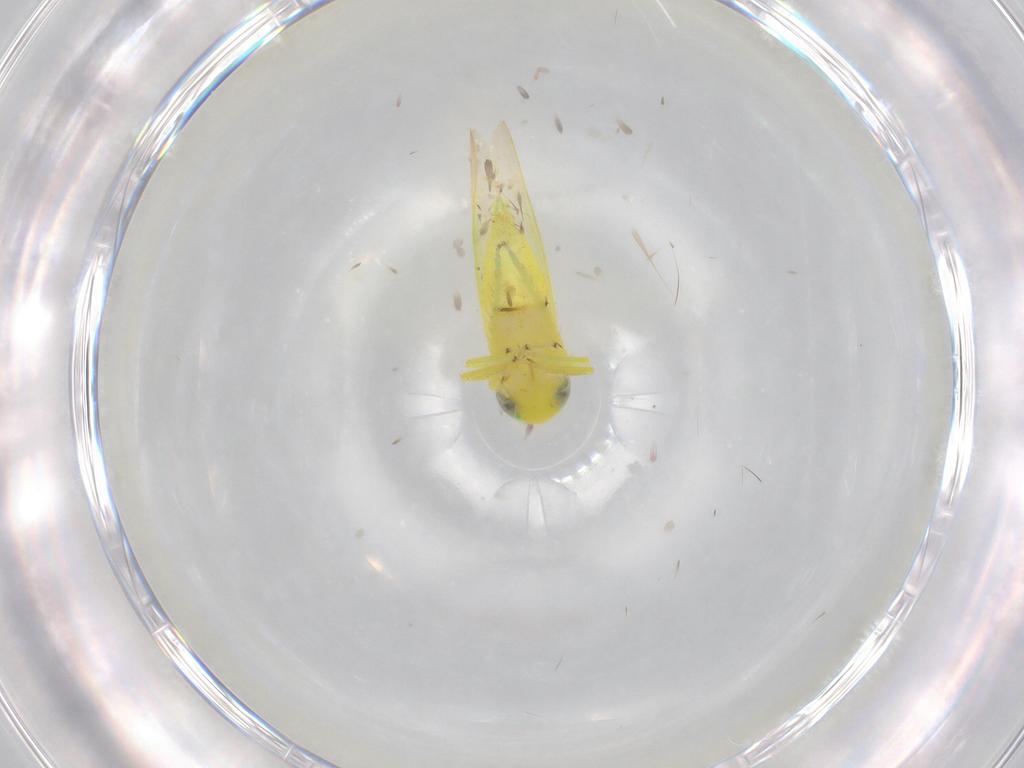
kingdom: Animalia
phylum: Arthropoda
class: Insecta
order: Hemiptera
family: Cicadellidae
